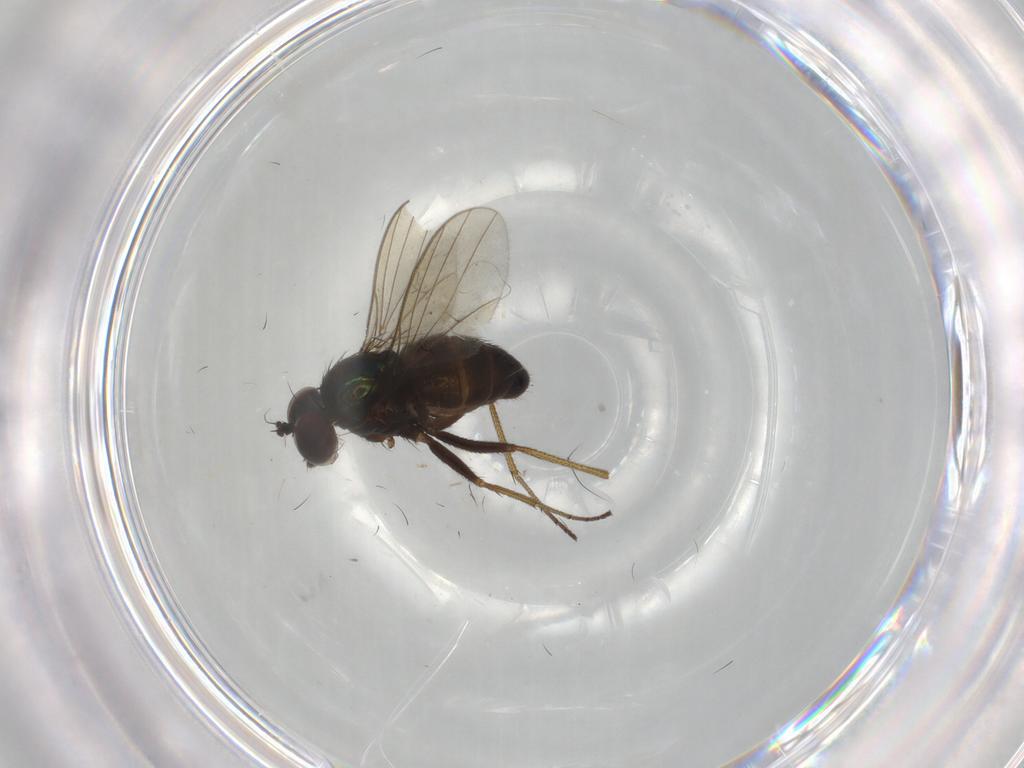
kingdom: Animalia
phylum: Arthropoda
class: Insecta
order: Diptera
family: Dolichopodidae
